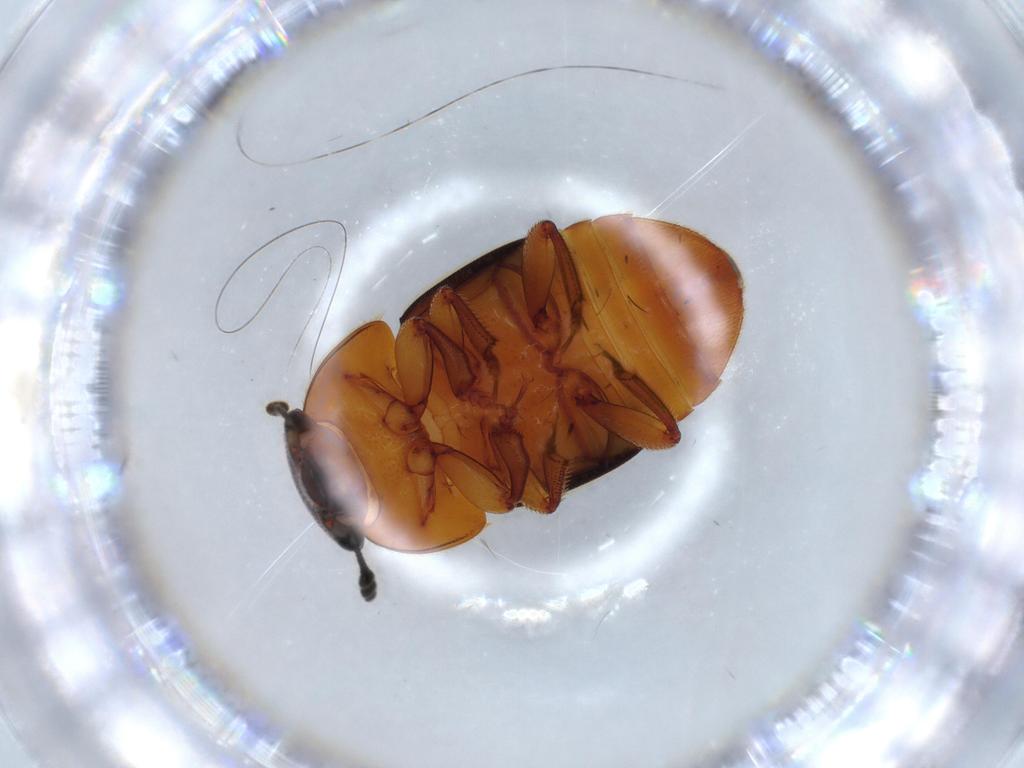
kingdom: Animalia
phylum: Arthropoda
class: Insecta
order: Coleoptera
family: Nitidulidae
